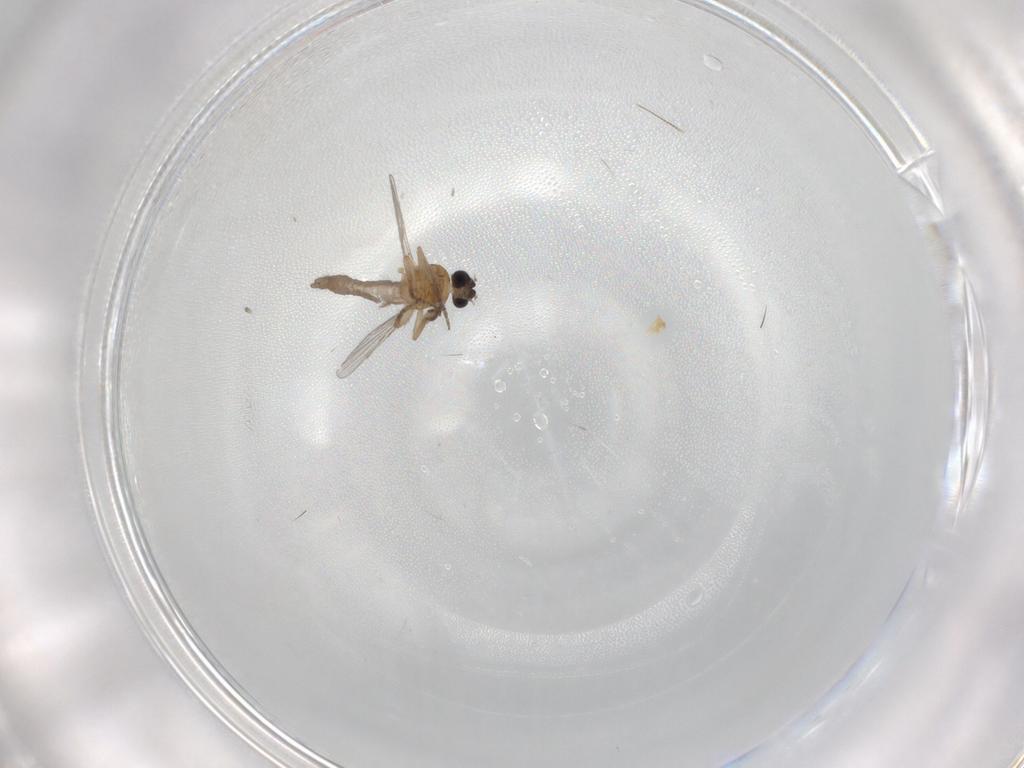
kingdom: Animalia
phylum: Arthropoda
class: Insecta
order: Diptera
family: Ceratopogonidae
